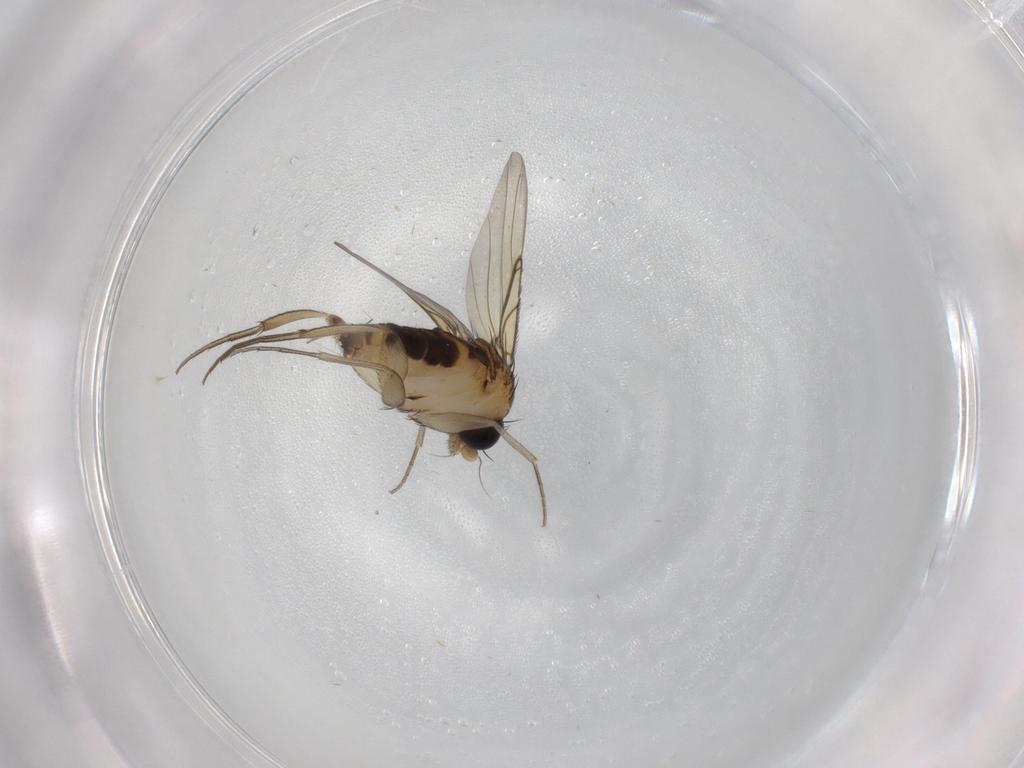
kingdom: Animalia
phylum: Arthropoda
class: Insecta
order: Diptera
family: Phoridae
